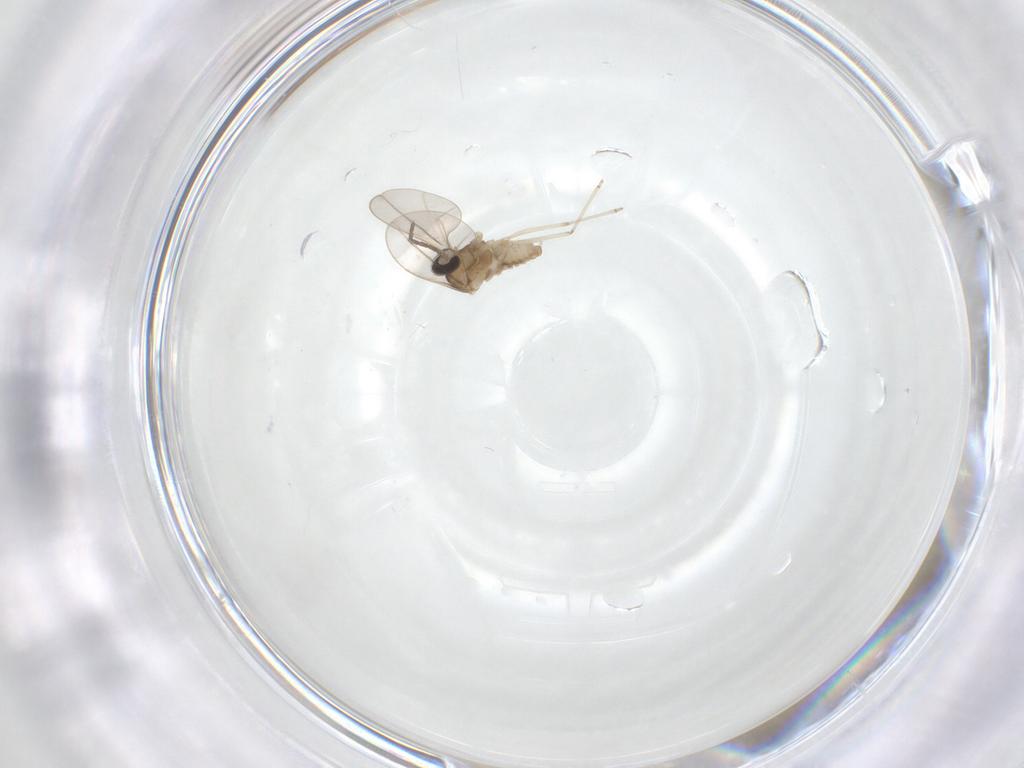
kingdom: Animalia
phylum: Arthropoda
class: Insecta
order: Diptera
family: Cecidomyiidae
